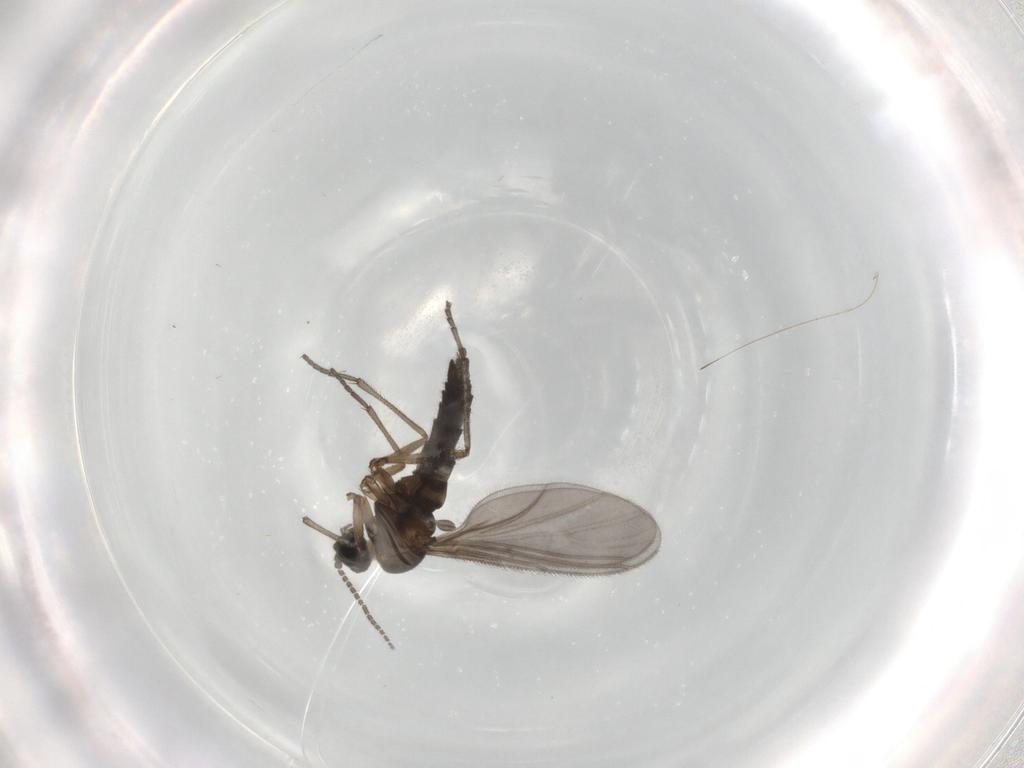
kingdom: Animalia
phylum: Arthropoda
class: Insecta
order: Diptera
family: Sciaridae
